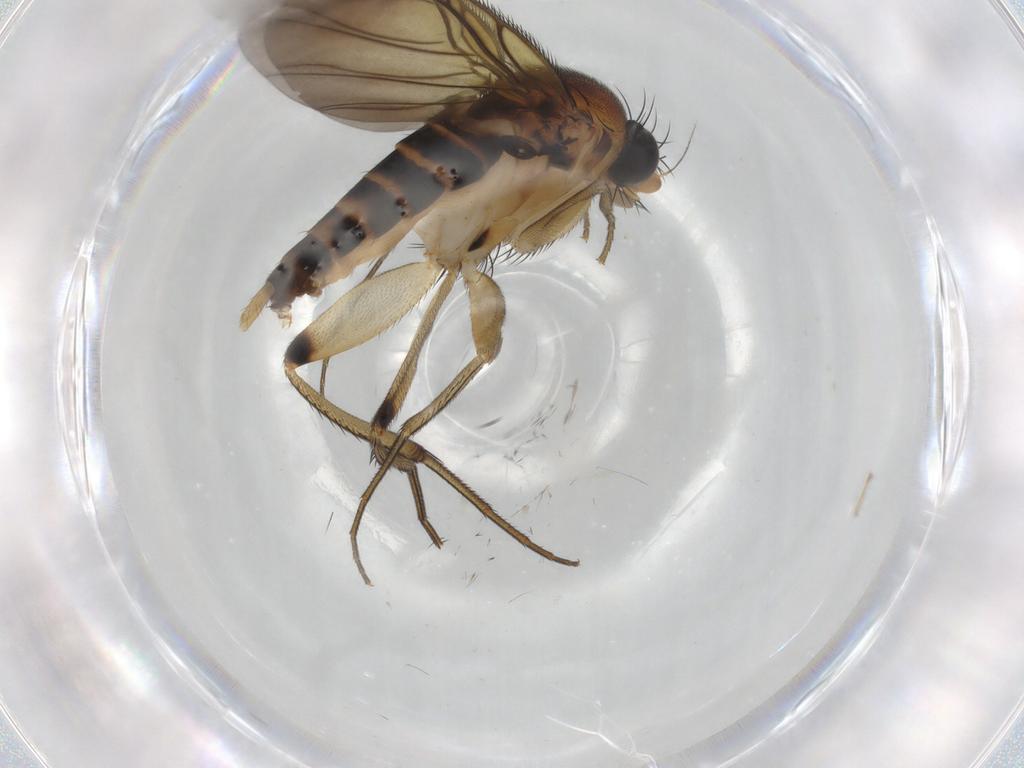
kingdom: Animalia
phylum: Arthropoda
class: Insecta
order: Diptera
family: Phoridae
